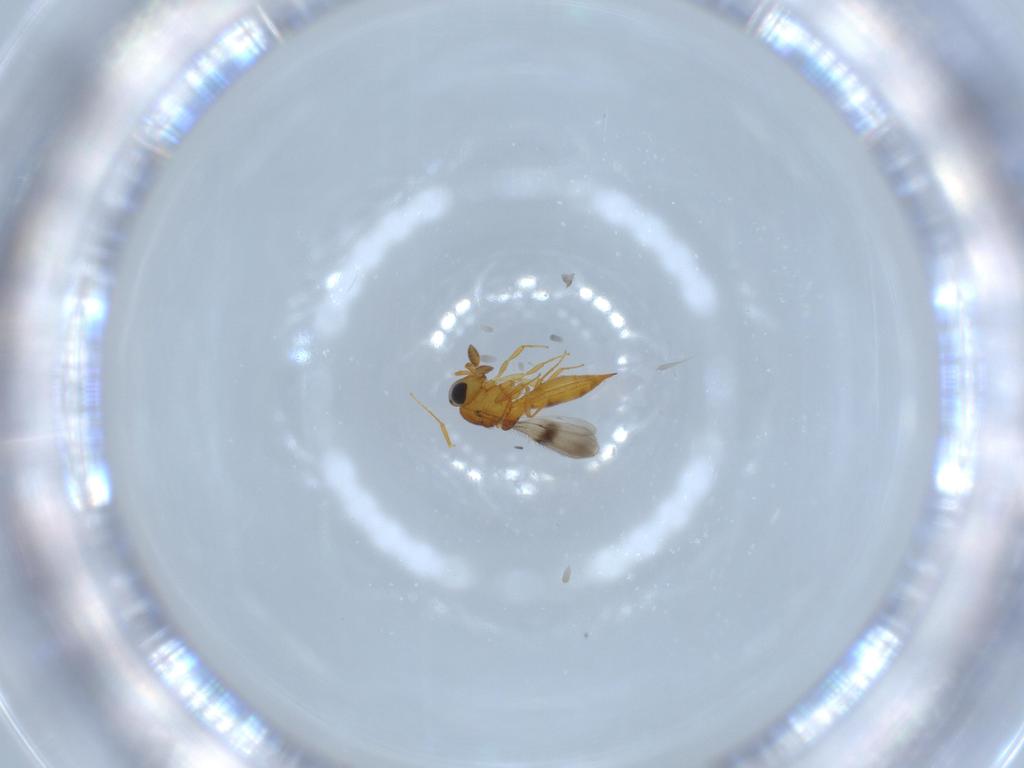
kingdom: Animalia
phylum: Arthropoda
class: Insecta
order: Hymenoptera
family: Scelionidae
